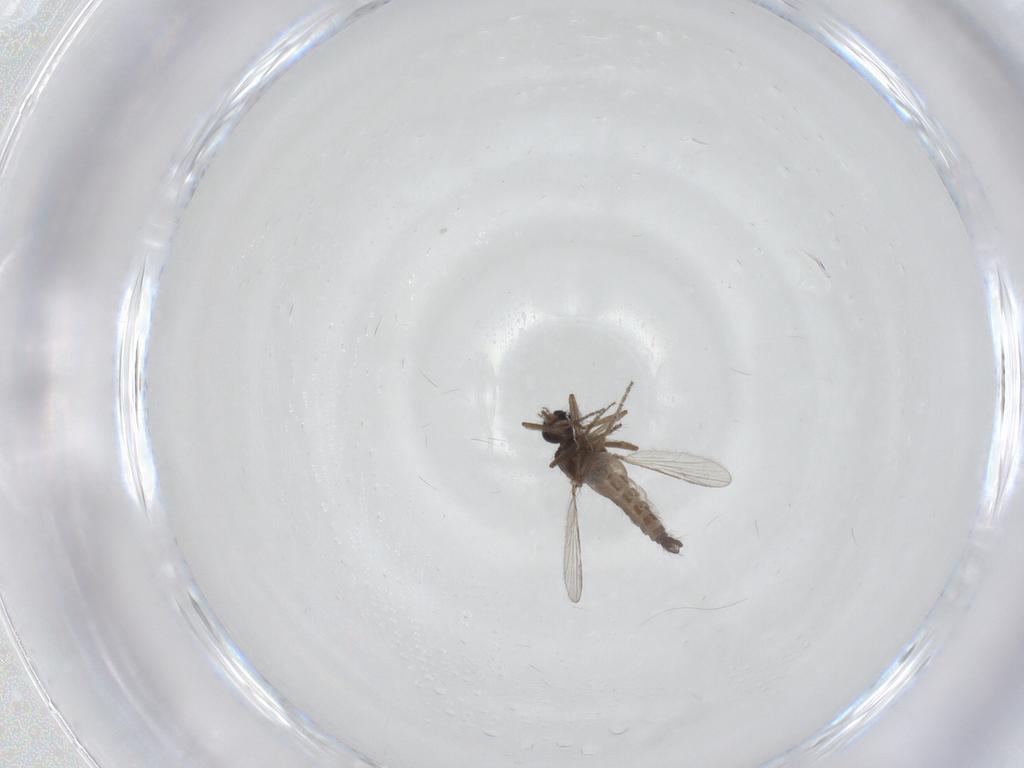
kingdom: Animalia
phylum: Arthropoda
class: Insecta
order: Diptera
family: Ceratopogonidae
